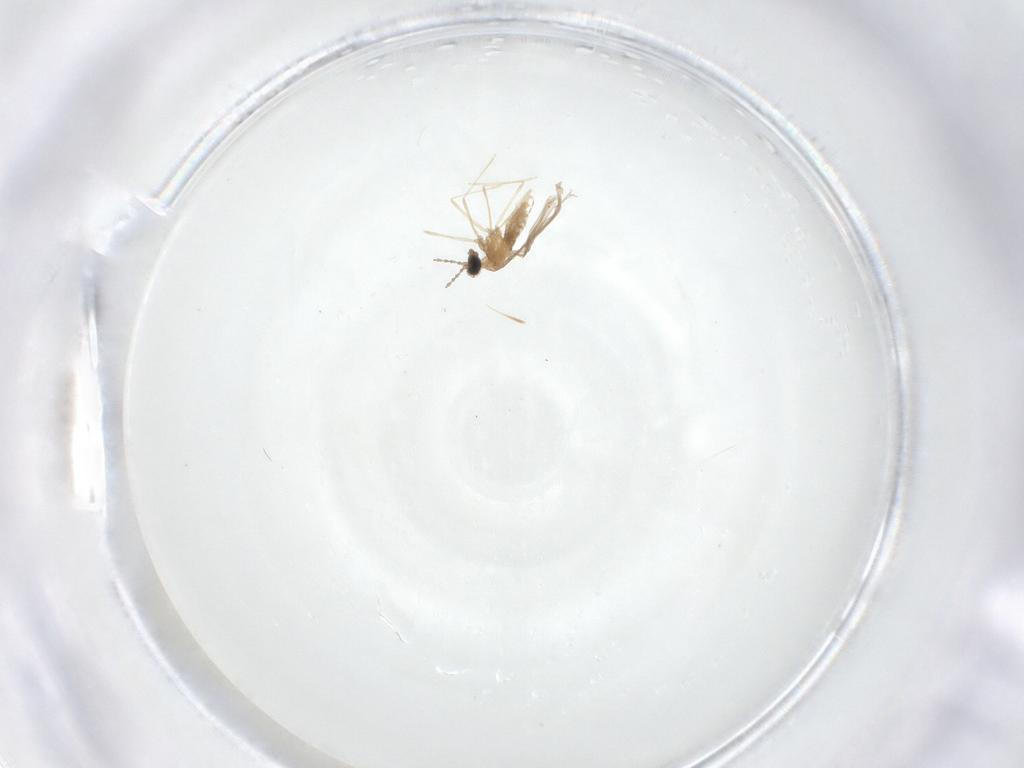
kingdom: Animalia
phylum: Arthropoda
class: Insecta
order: Diptera
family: Cecidomyiidae
